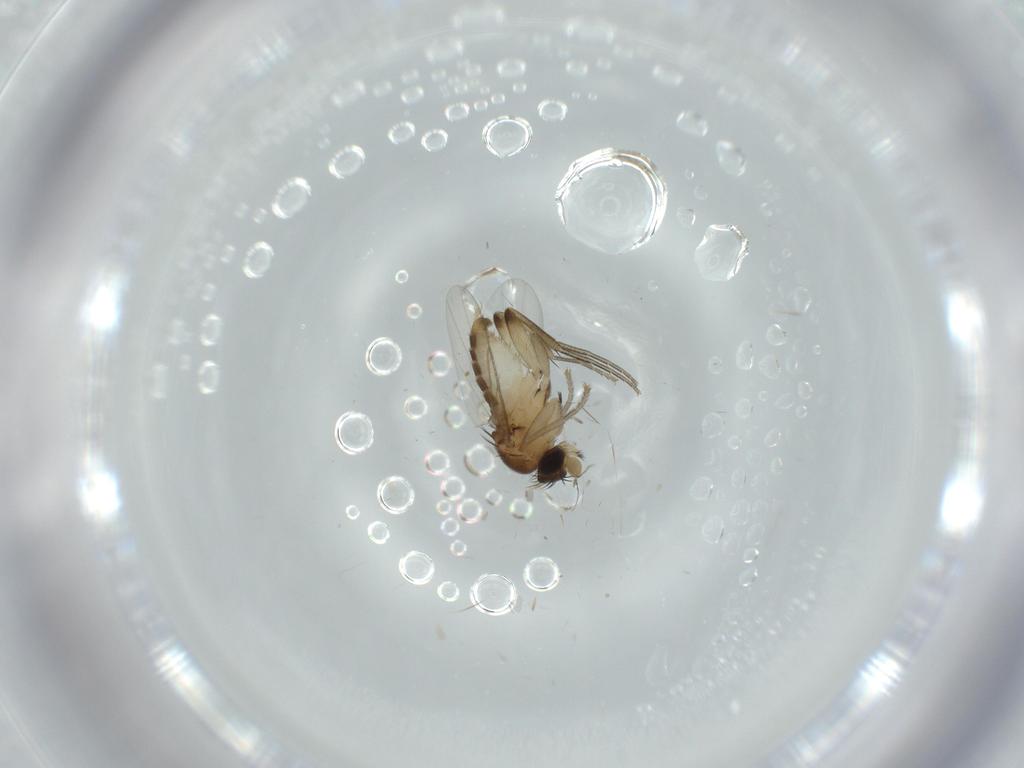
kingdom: Animalia
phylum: Arthropoda
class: Insecta
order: Diptera
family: Phoridae
